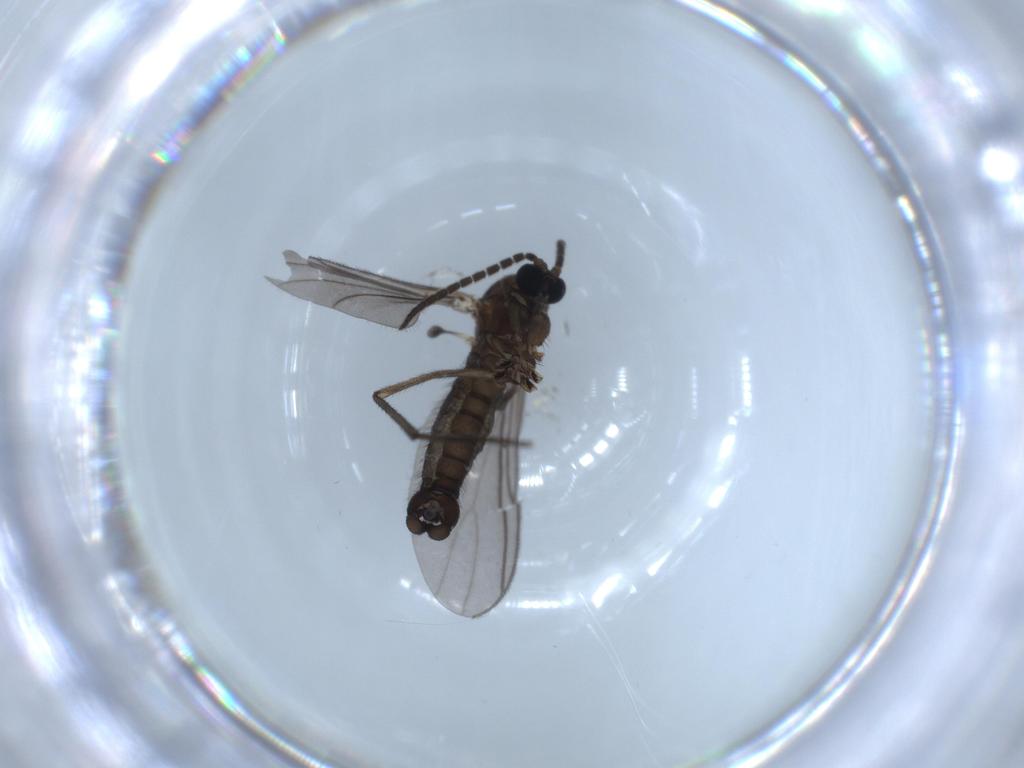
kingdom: Animalia
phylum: Arthropoda
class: Insecta
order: Diptera
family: Sciaridae
